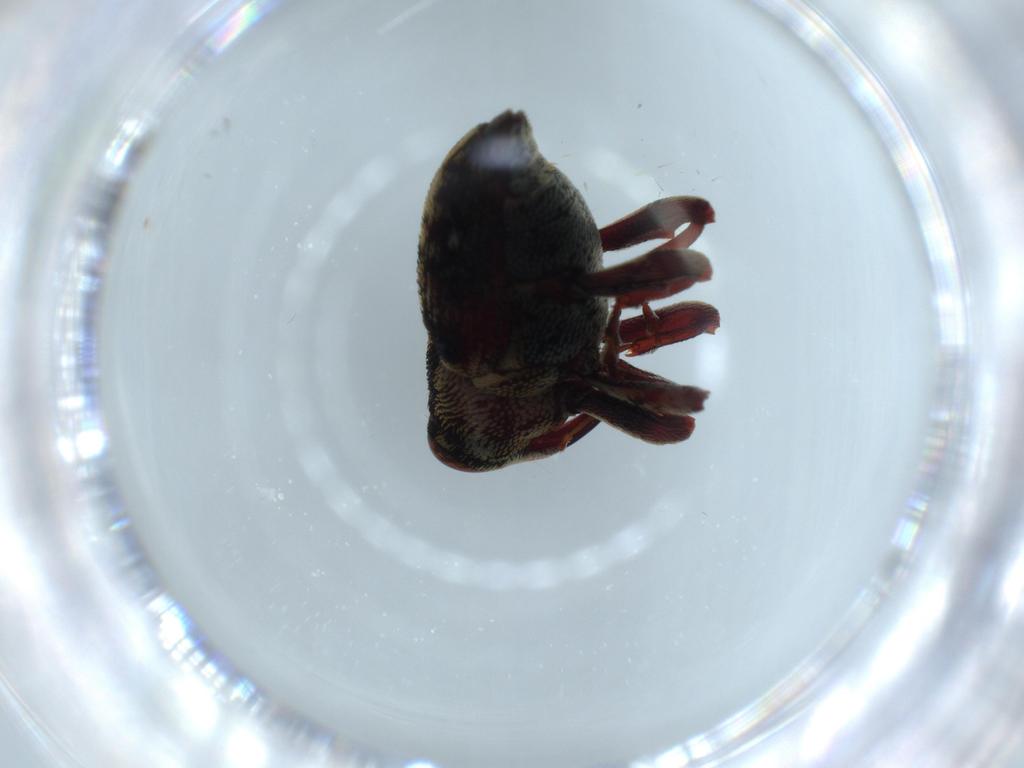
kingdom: Animalia
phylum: Arthropoda
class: Insecta
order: Coleoptera
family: Curculionidae
